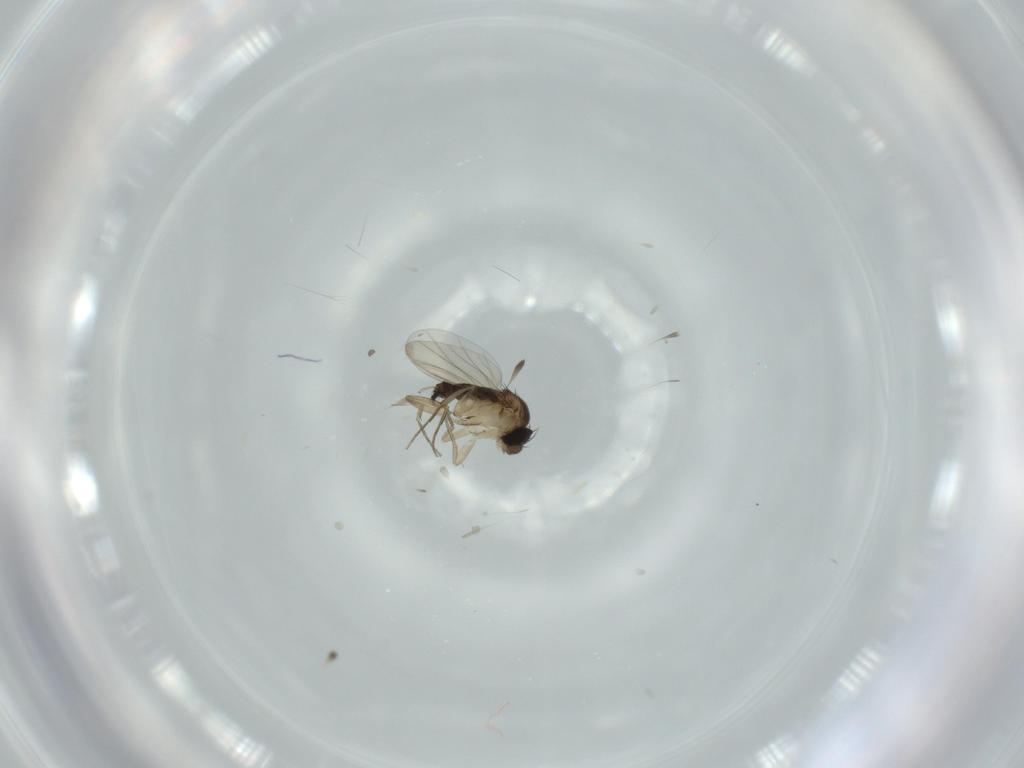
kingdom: Animalia
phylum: Arthropoda
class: Insecta
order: Diptera
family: Phoridae
